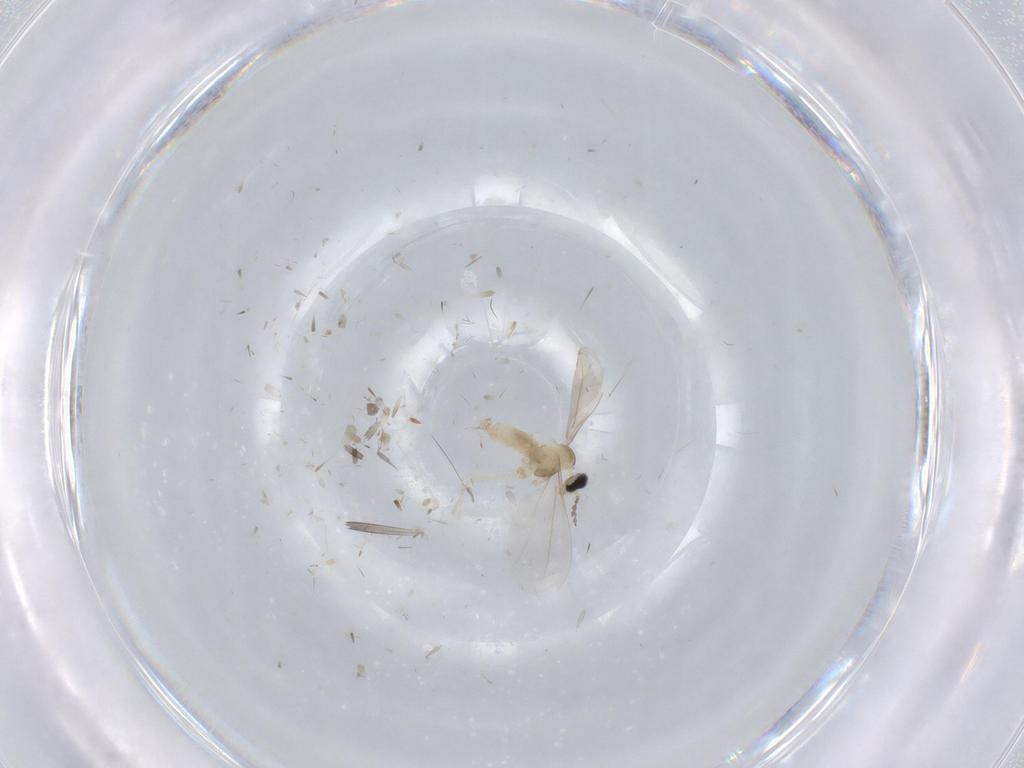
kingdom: Animalia
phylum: Arthropoda
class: Insecta
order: Diptera
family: Cecidomyiidae
